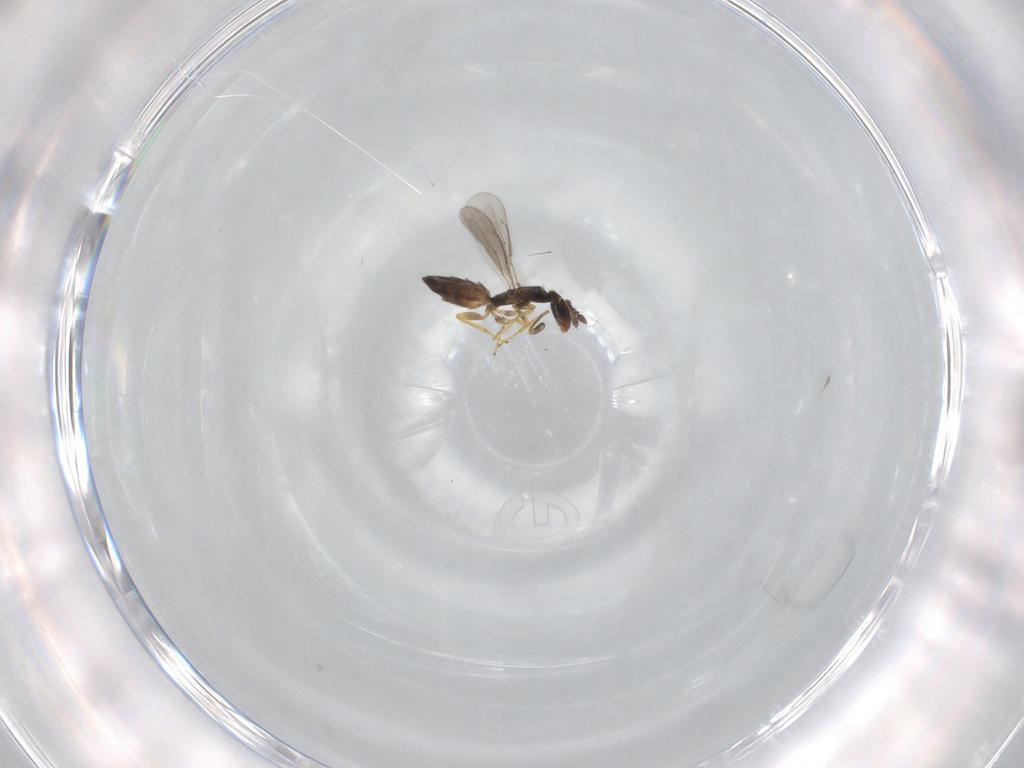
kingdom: Animalia
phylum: Arthropoda
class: Insecta
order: Hymenoptera
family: Eulophidae
